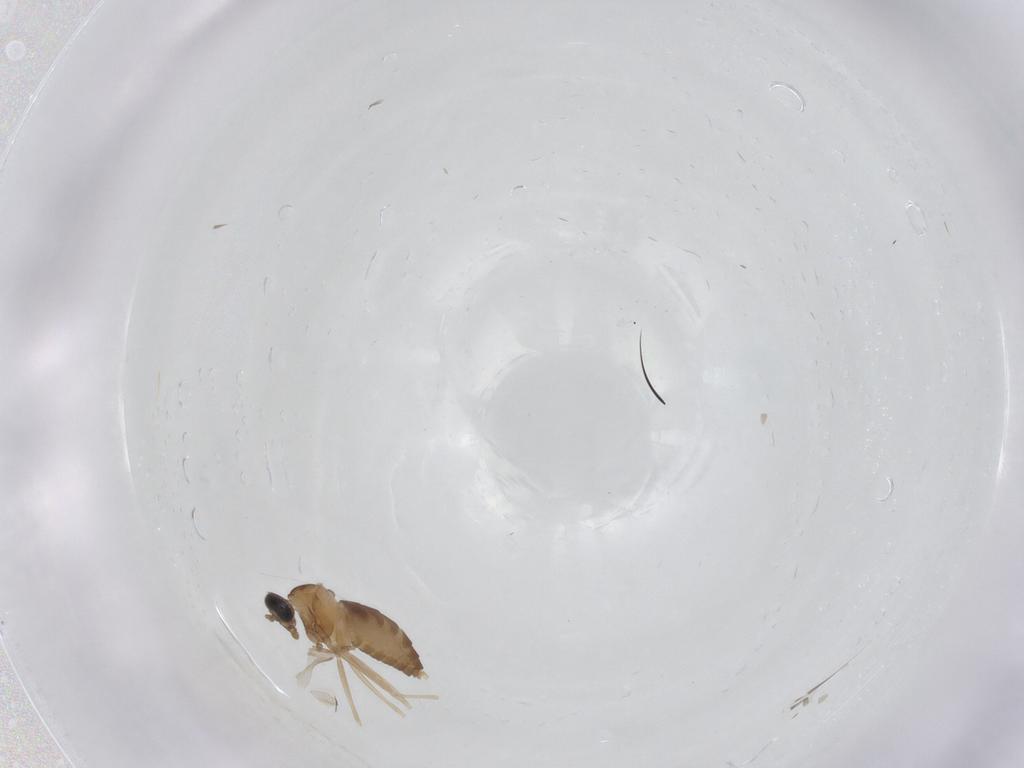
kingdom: Animalia
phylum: Arthropoda
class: Insecta
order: Diptera
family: Cecidomyiidae
